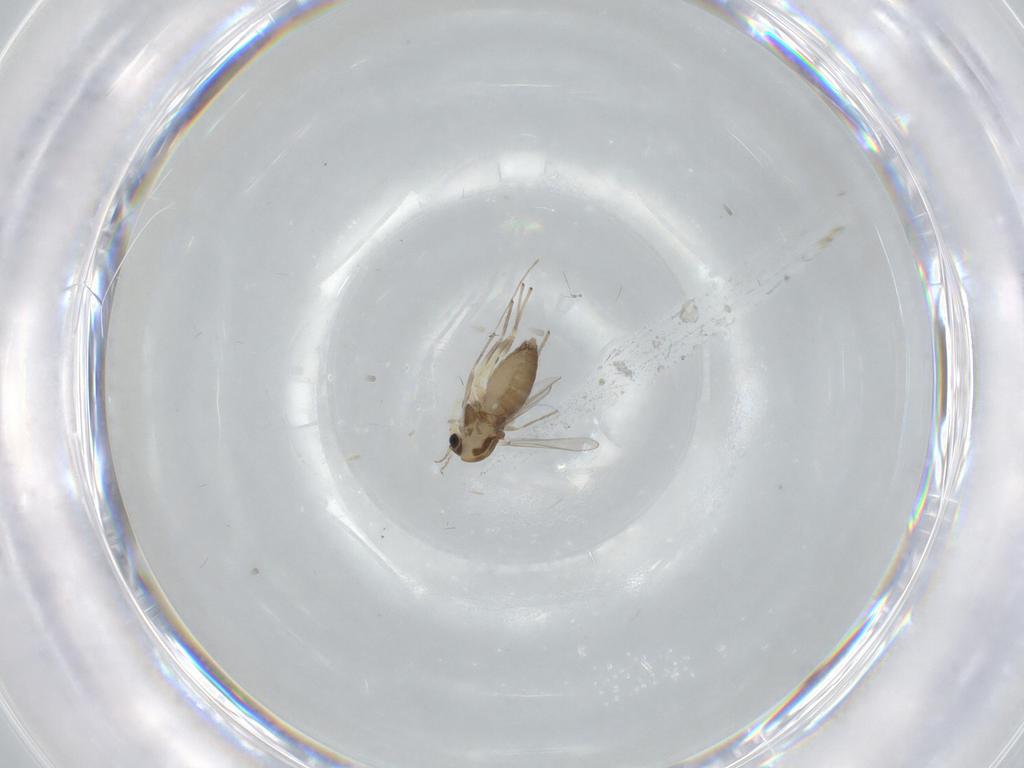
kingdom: Animalia
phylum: Arthropoda
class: Insecta
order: Diptera
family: Chironomidae
